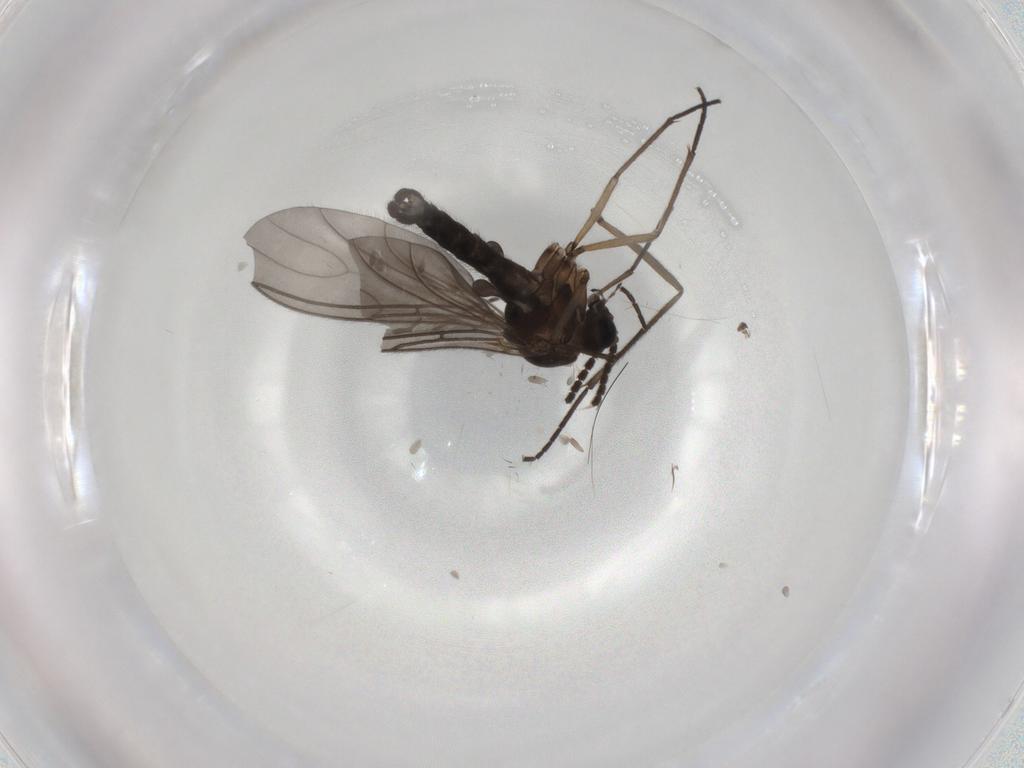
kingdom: Animalia
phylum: Arthropoda
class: Insecta
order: Diptera
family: Sciaridae
